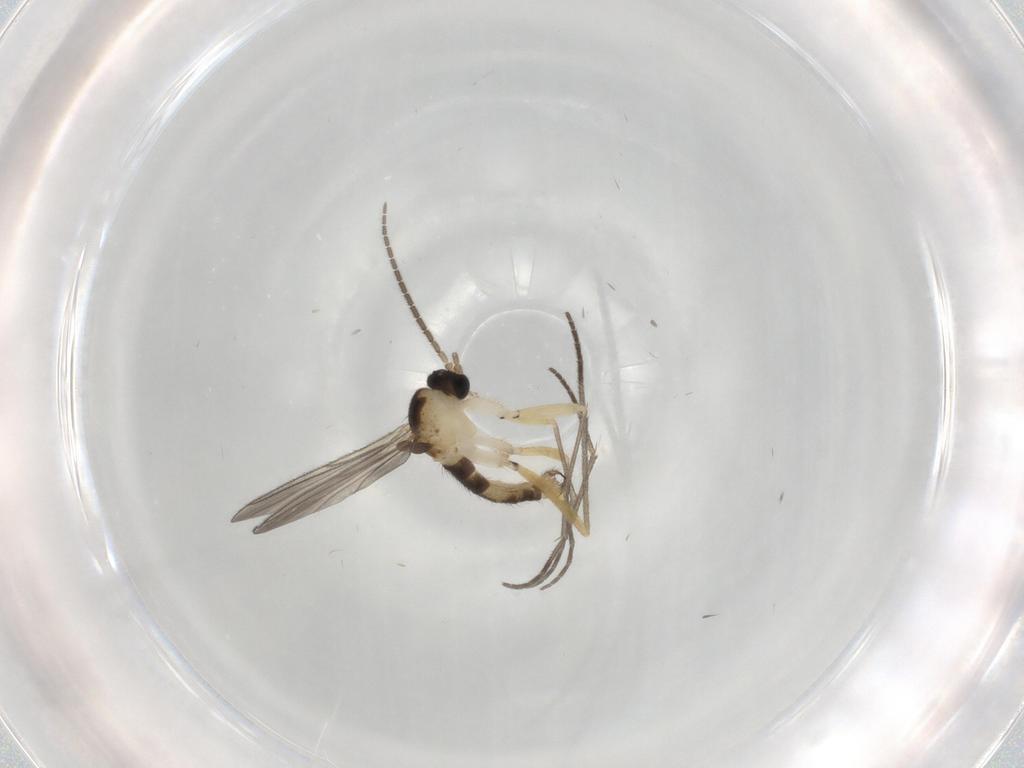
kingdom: Animalia
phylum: Arthropoda
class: Insecta
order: Diptera
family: Sciaridae
